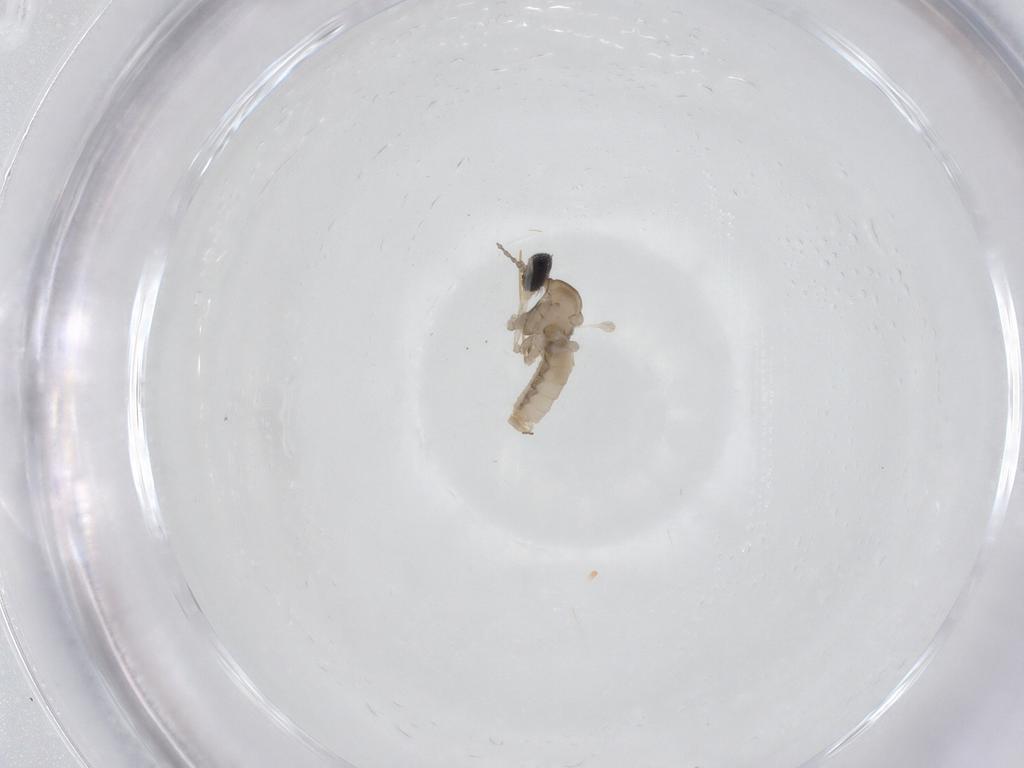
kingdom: Animalia
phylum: Arthropoda
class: Insecta
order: Diptera
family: Cecidomyiidae
